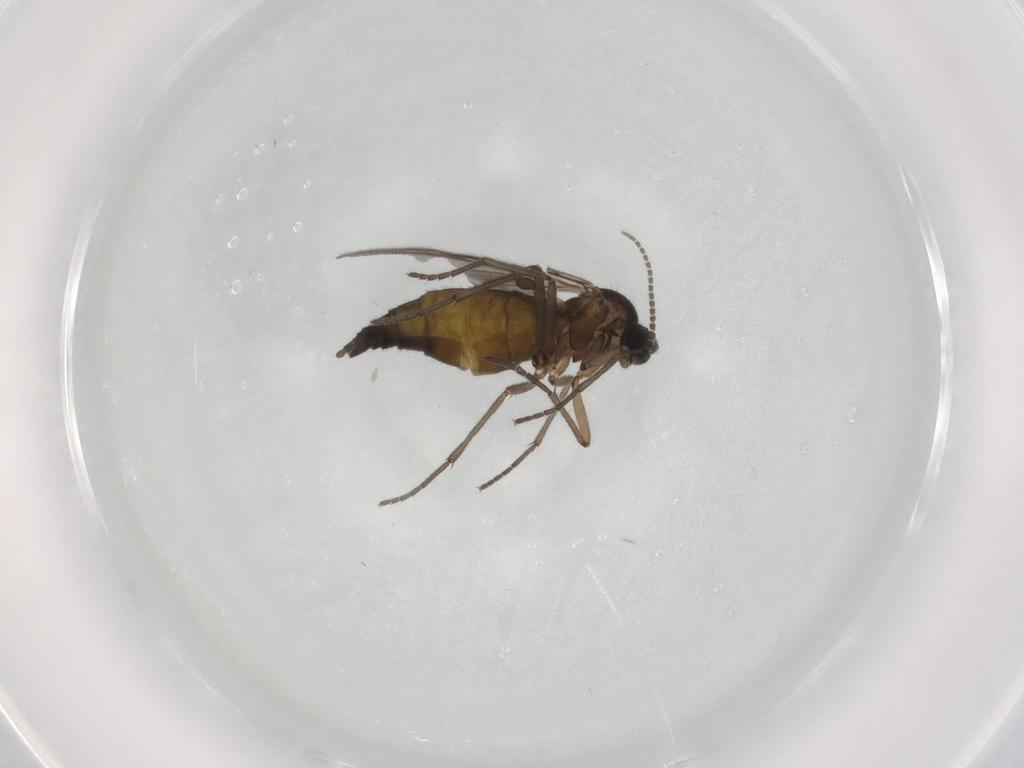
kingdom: Animalia
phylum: Arthropoda
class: Insecta
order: Diptera
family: Sciaridae
